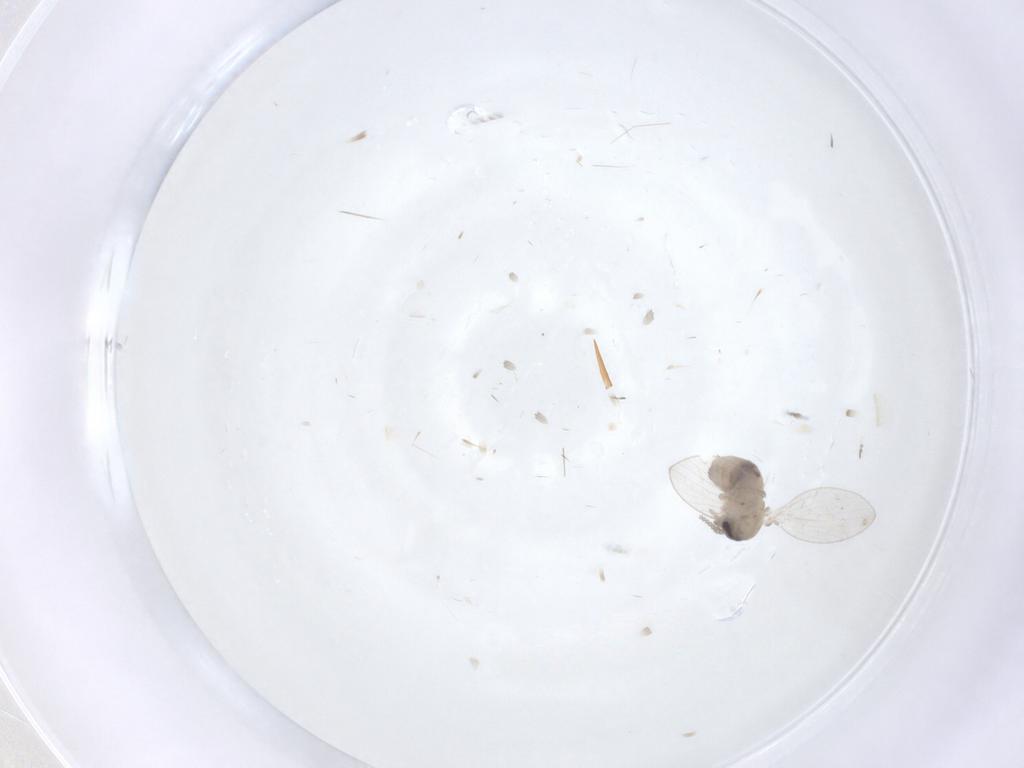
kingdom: Animalia
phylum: Arthropoda
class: Insecta
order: Diptera
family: Psychodidae
